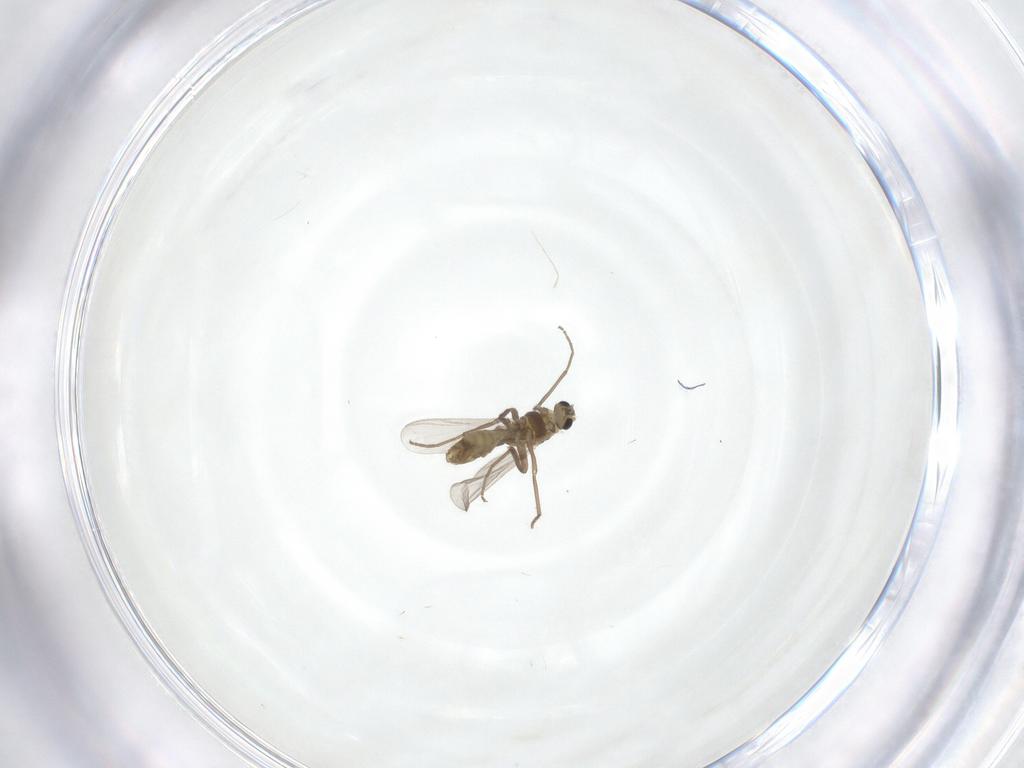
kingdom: Animalia
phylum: Arthropoda
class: Insecta
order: Diptera
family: Chironomidae
